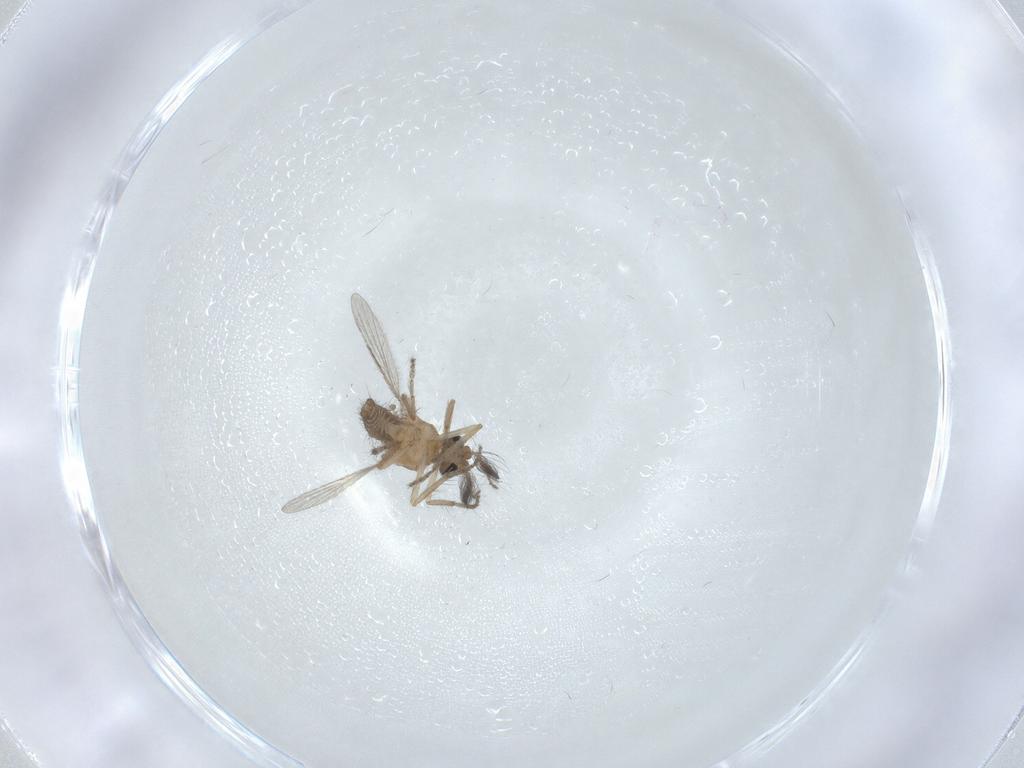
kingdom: Animalia
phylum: Arthropoda
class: Insecta
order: Diptera
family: Ceratopogonidae
